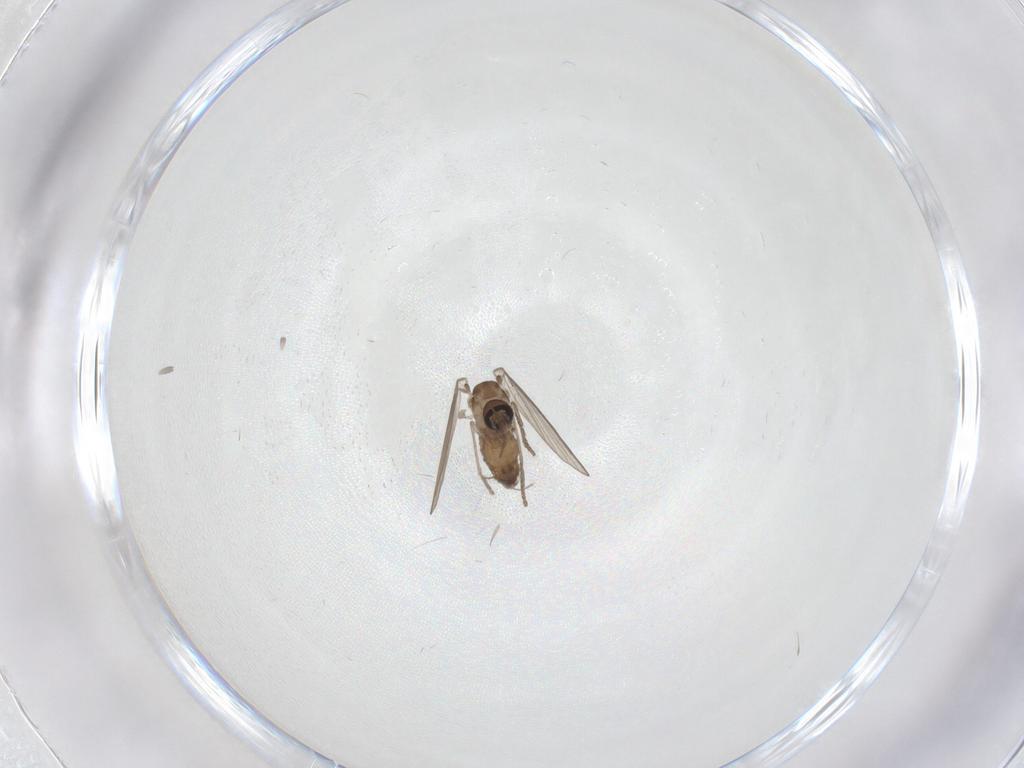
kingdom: Animalia
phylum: Arthropoda
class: Insecta
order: Diptera
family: Psychodidae
